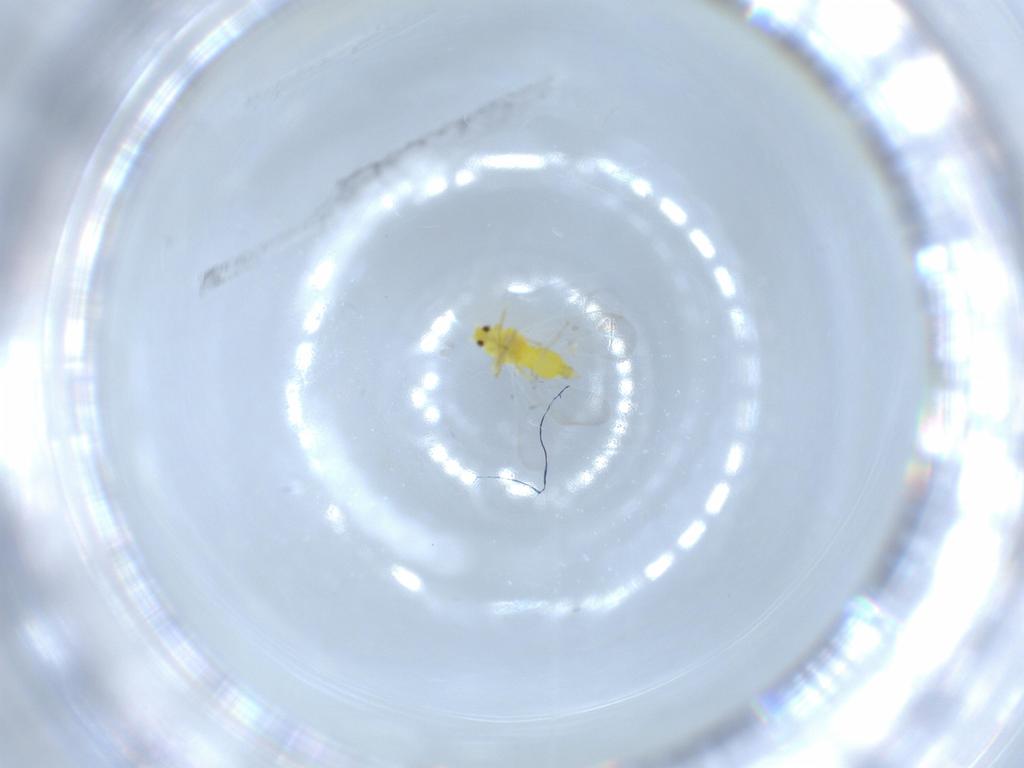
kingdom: Animalia
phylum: Arthropoda
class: Insecta
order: Hemiptera
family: Aleyrodidae
